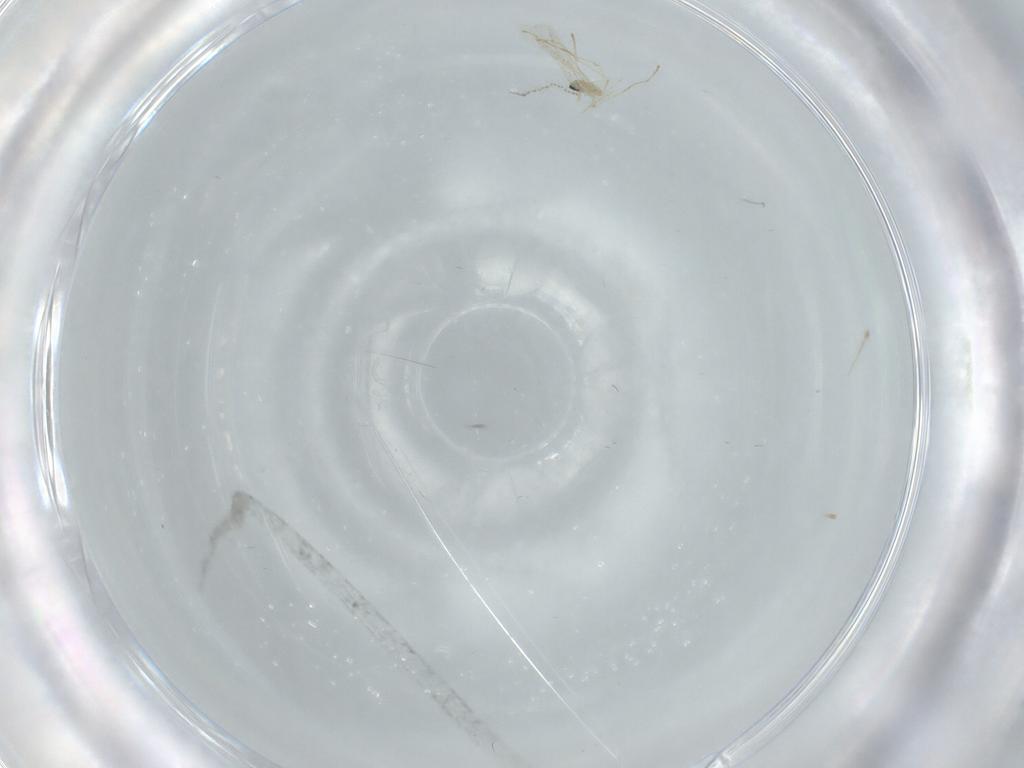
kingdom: Animalia
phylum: Arthropoda
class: Insecta
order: Diptera
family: Cecidomyiidae
